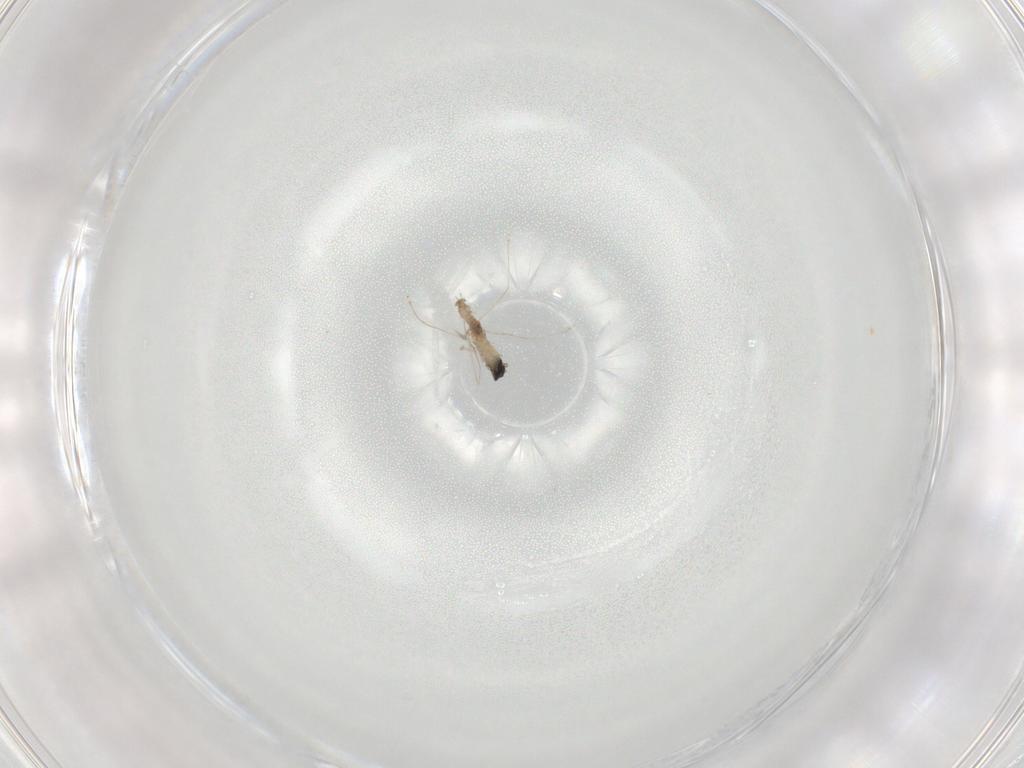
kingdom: Animalia
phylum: Arthropoda
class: Insecta
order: Diptera
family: Cecidomyiidae
